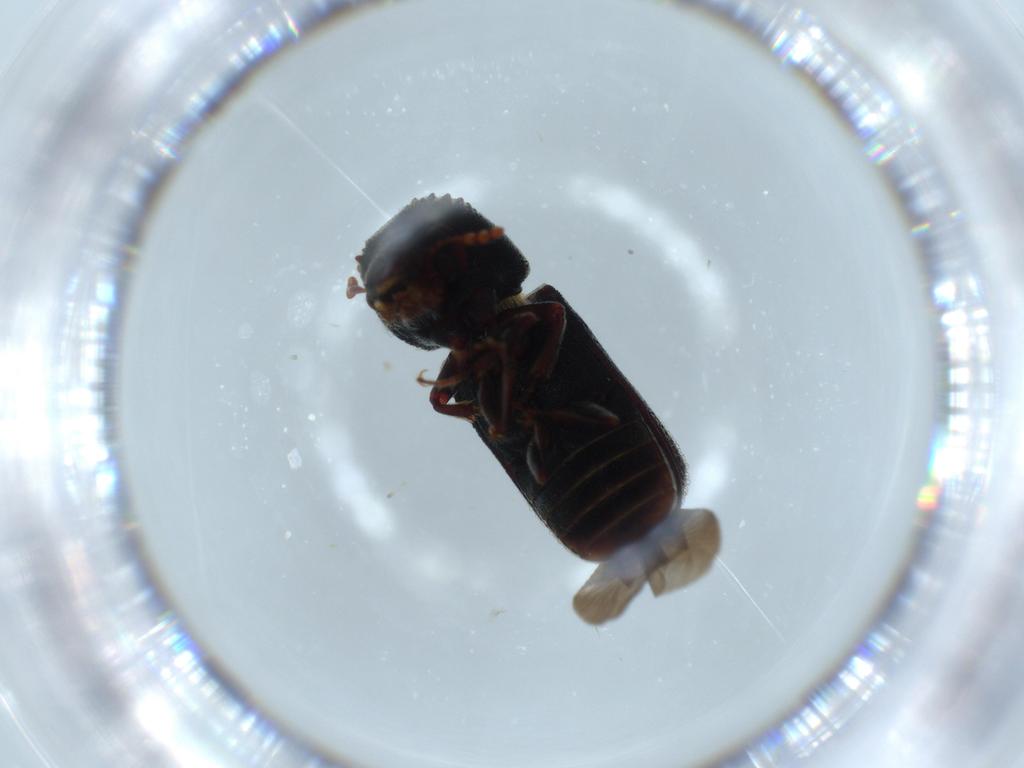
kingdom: Animalia
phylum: Arthropoda
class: Insecta
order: Coleoptera
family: Bostrichidae
